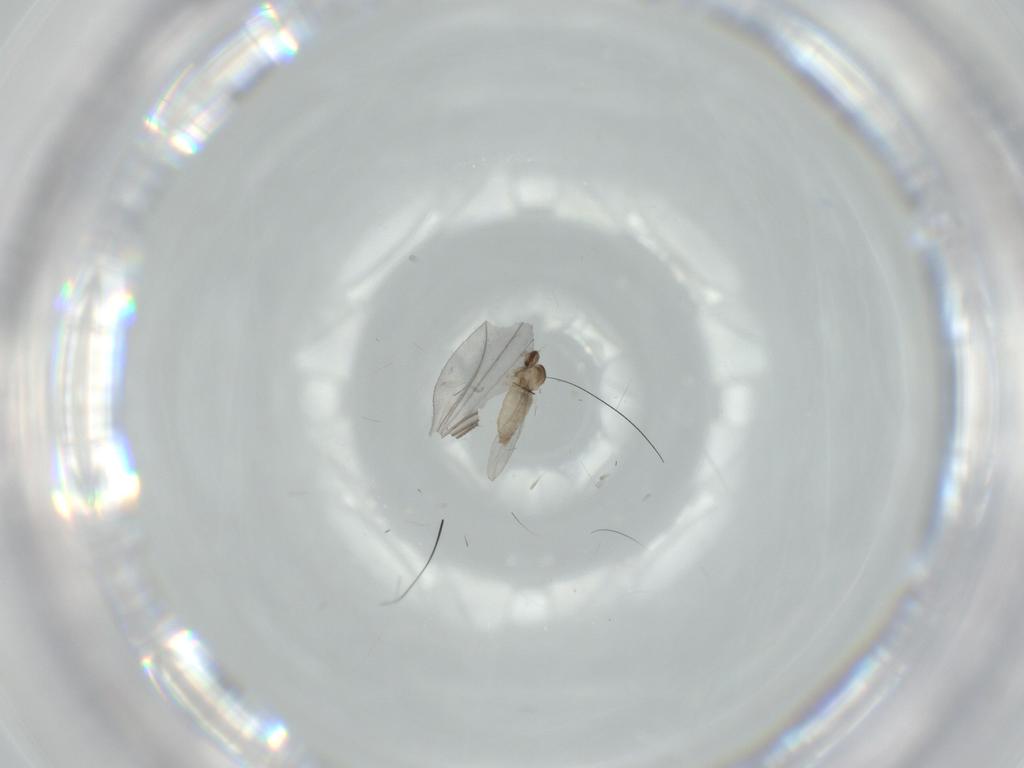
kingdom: Animalia
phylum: Arthropoda
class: Insecta
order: Diptera
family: Cecidomyiidae
